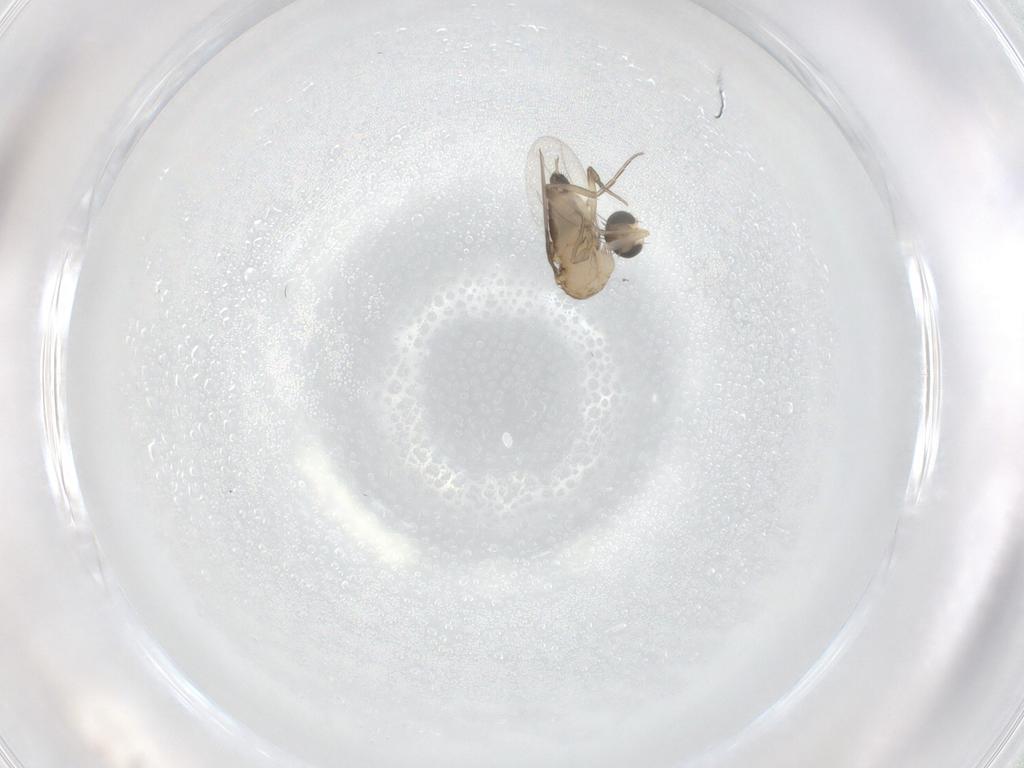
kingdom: Animalia
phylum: Arthropoda
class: Insecta
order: Diptera
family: Phoridae
